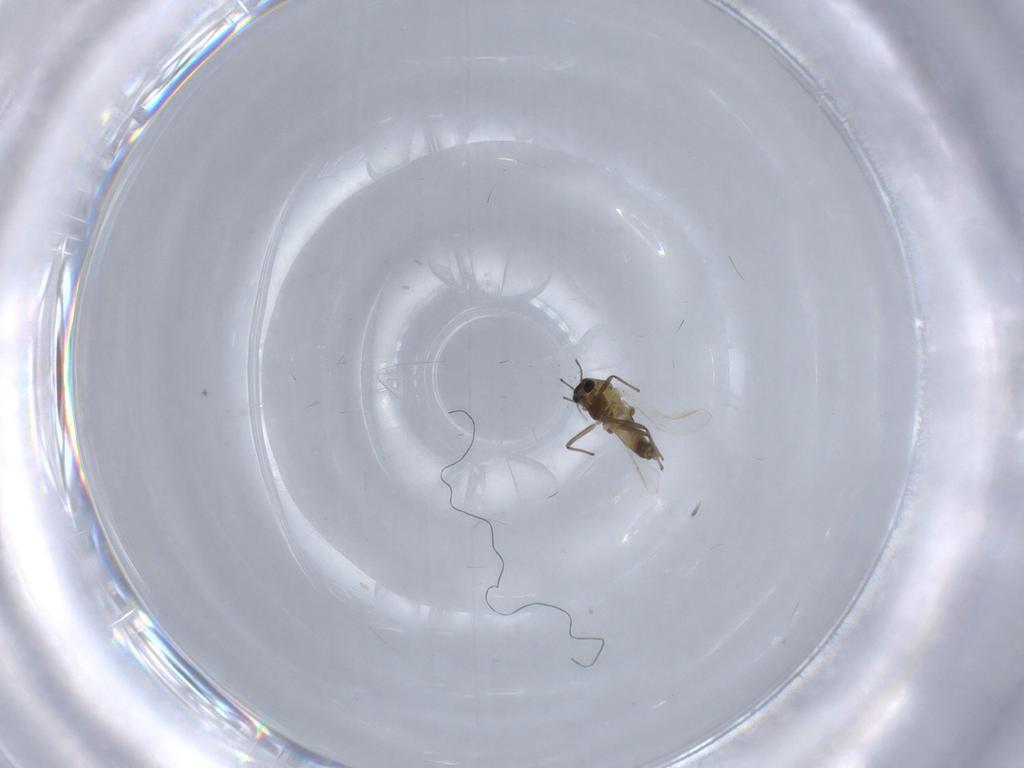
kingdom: Animalia
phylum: Arthropoda
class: Insecta
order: Diptera
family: Chironomidae
